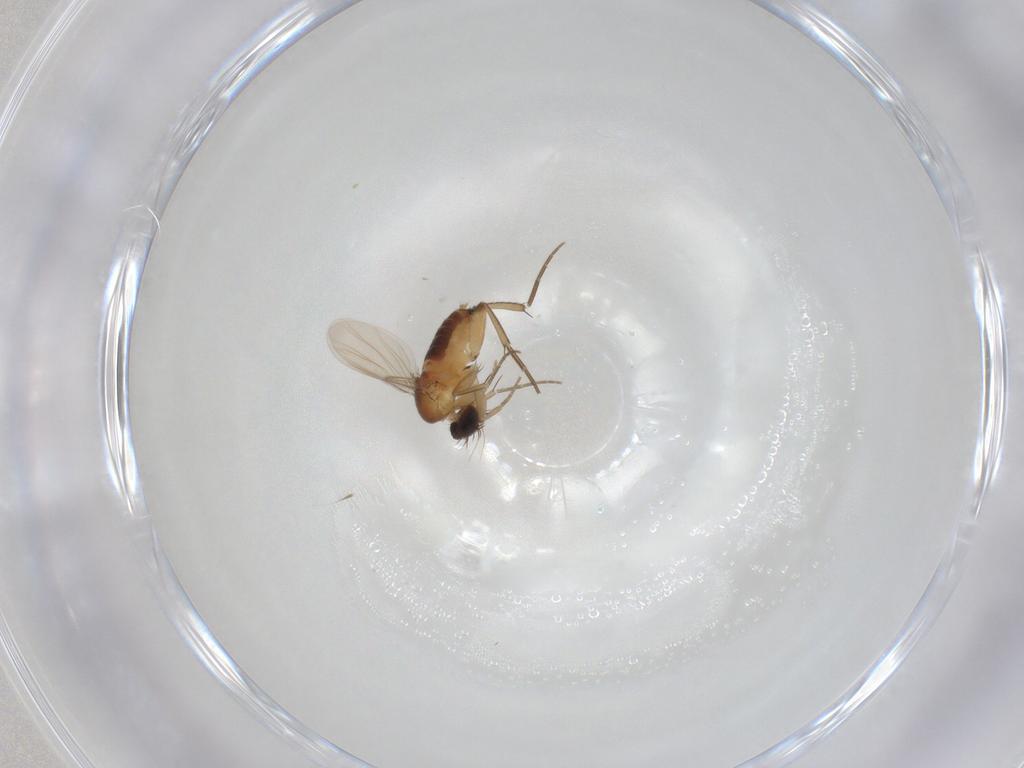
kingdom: Animalia
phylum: Arthropoda
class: Insecta
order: Diptera
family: Phoridae
